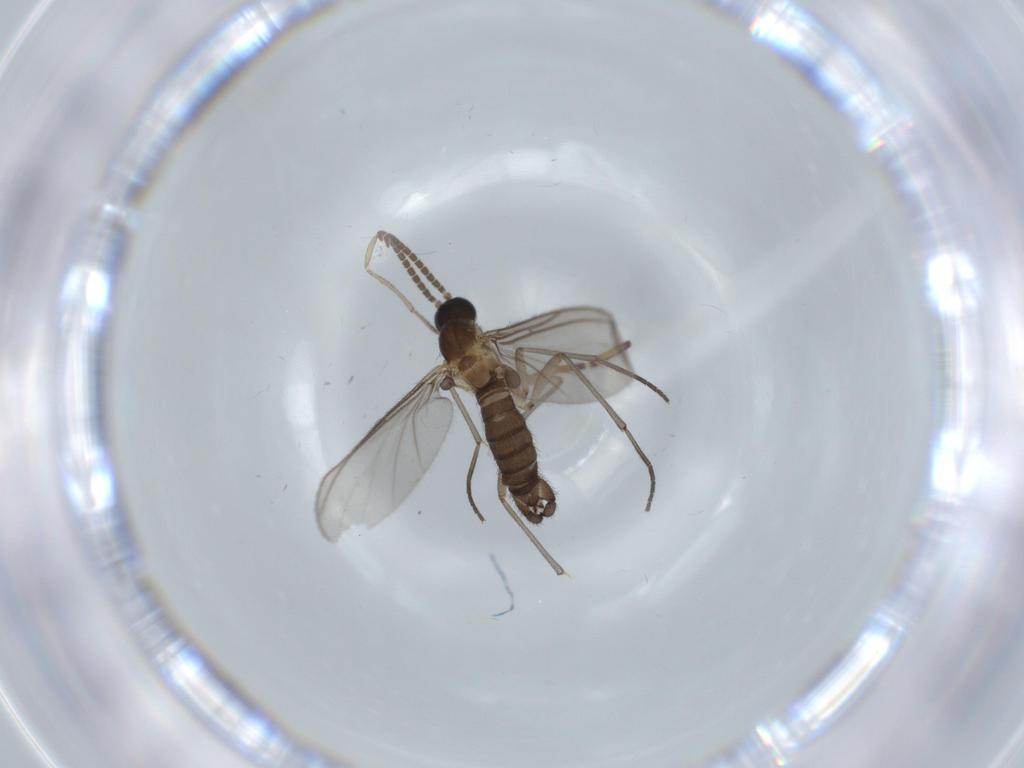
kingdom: Animalia
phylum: Arthropoda
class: Insecta
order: Diptera
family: Sciaridae
